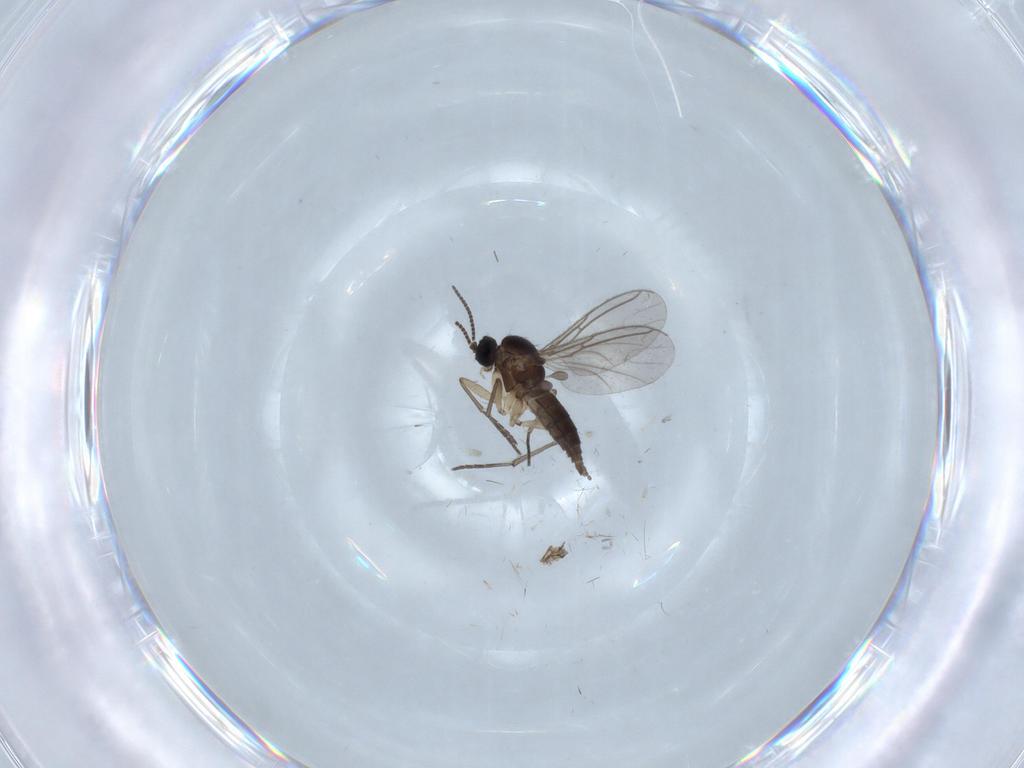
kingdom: Animalia
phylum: Arthropoda
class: Insecta
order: Diptera
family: Sciaridae
